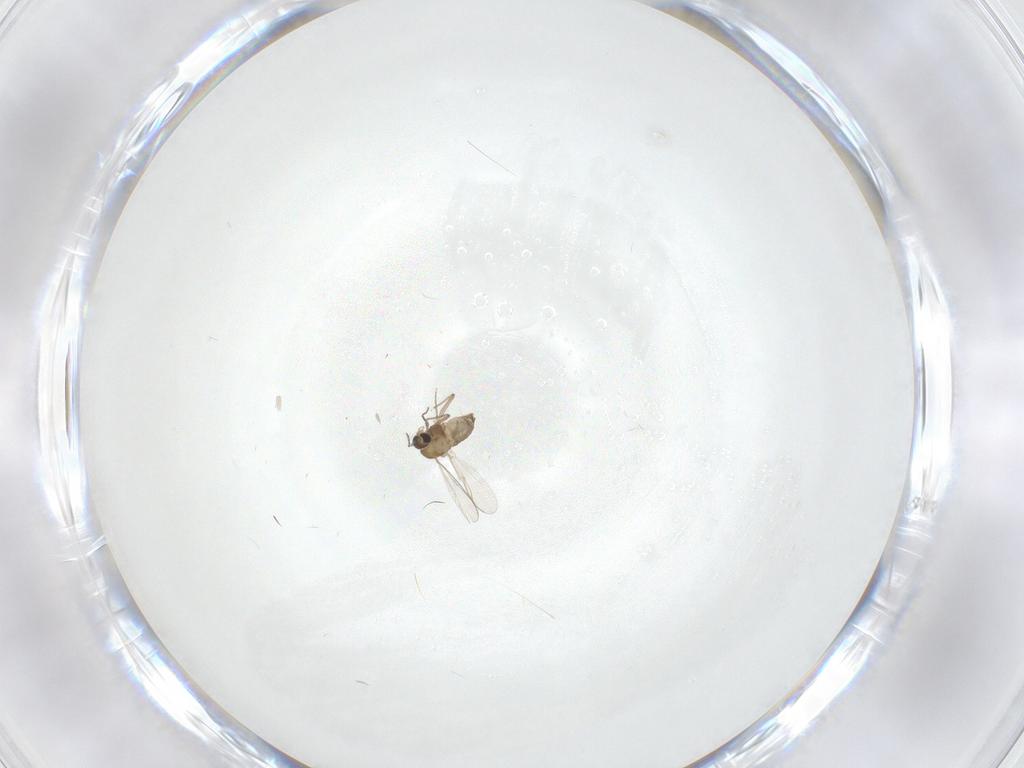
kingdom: Animalia
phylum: Arthropoda
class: Insecta
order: Diptera
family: Chironomidae
